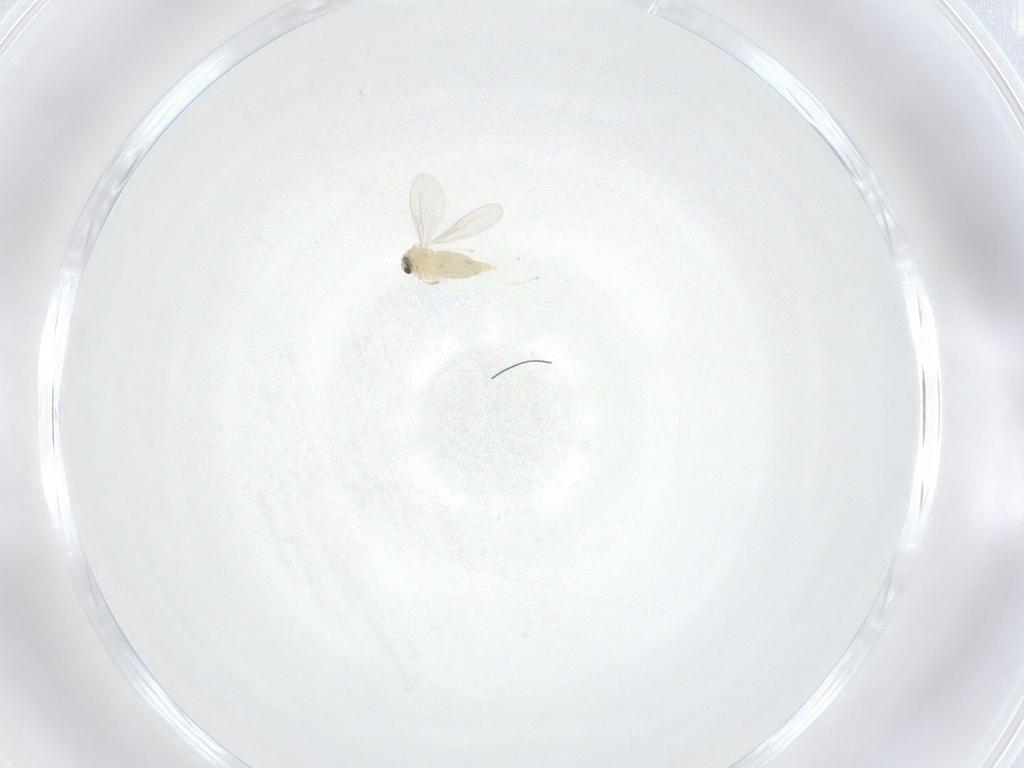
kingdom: Animalia
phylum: Arthropoda
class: Insecta
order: Diptera
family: Cecidomyiidae
